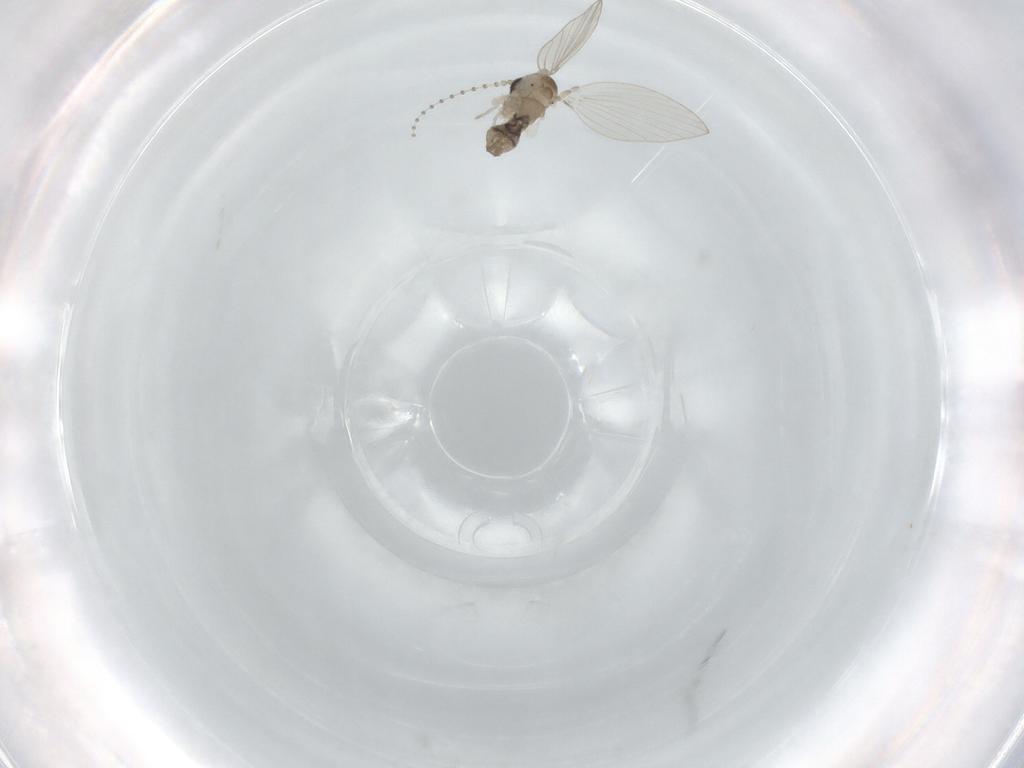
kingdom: Animalia
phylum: Arthropoda
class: Insecta
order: Diptera
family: Psychodidae
